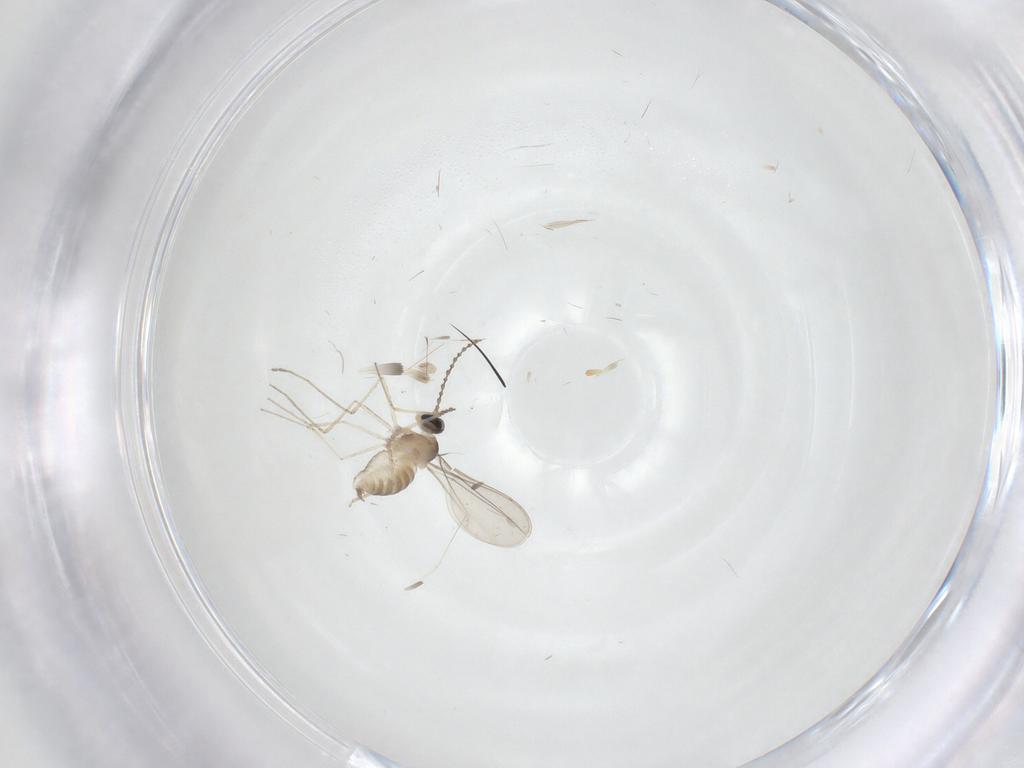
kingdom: Animalia
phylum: Arthropoda
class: Insecta
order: Diptera
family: Cecidomyiidae
